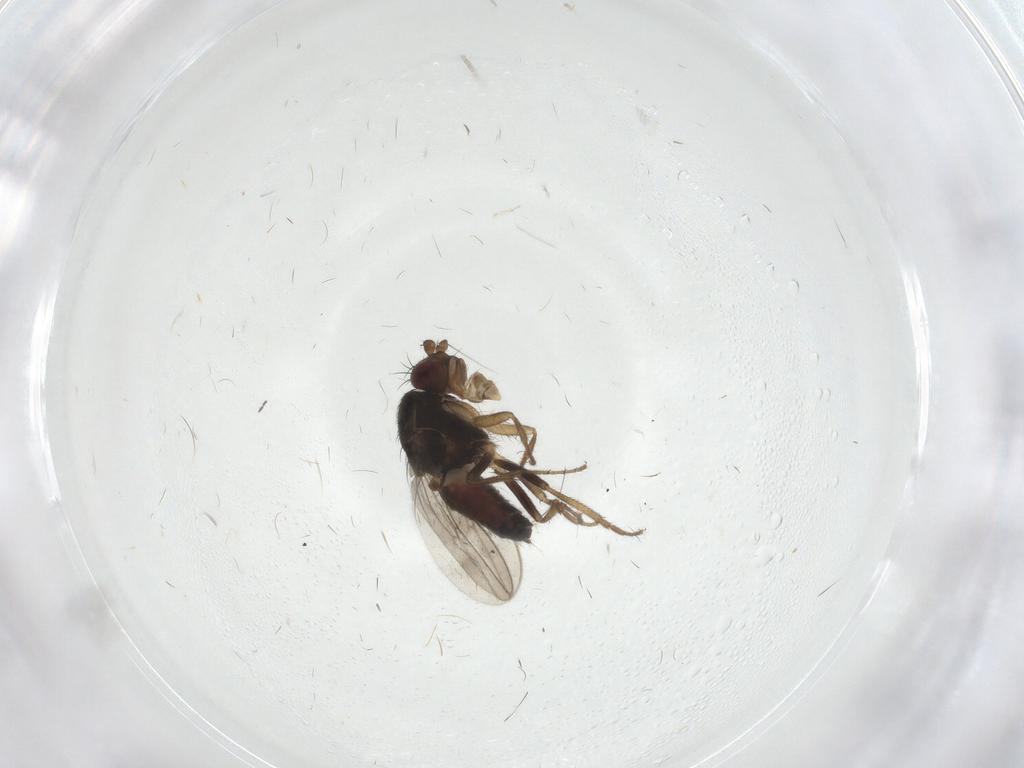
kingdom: Animalia
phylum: Arthropoda
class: Insecta
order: Diptera
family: Sphaeroceridae
